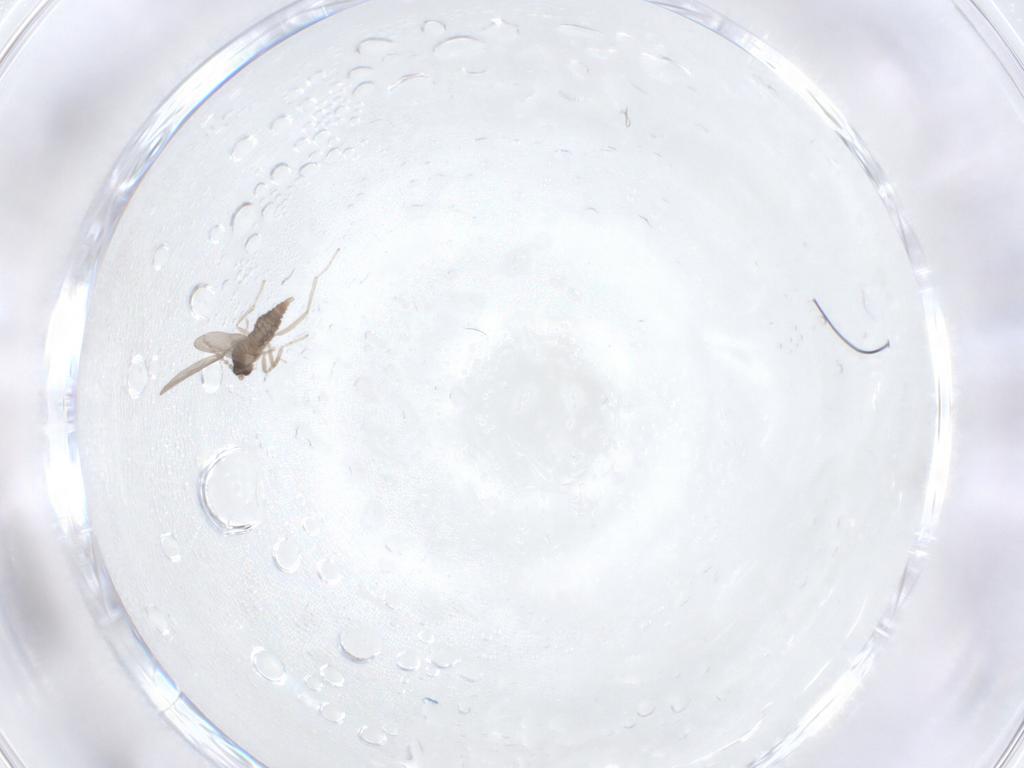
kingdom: Animalia
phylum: Arthropoda
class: Insecta
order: Diptera
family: Cecidomyiidae
